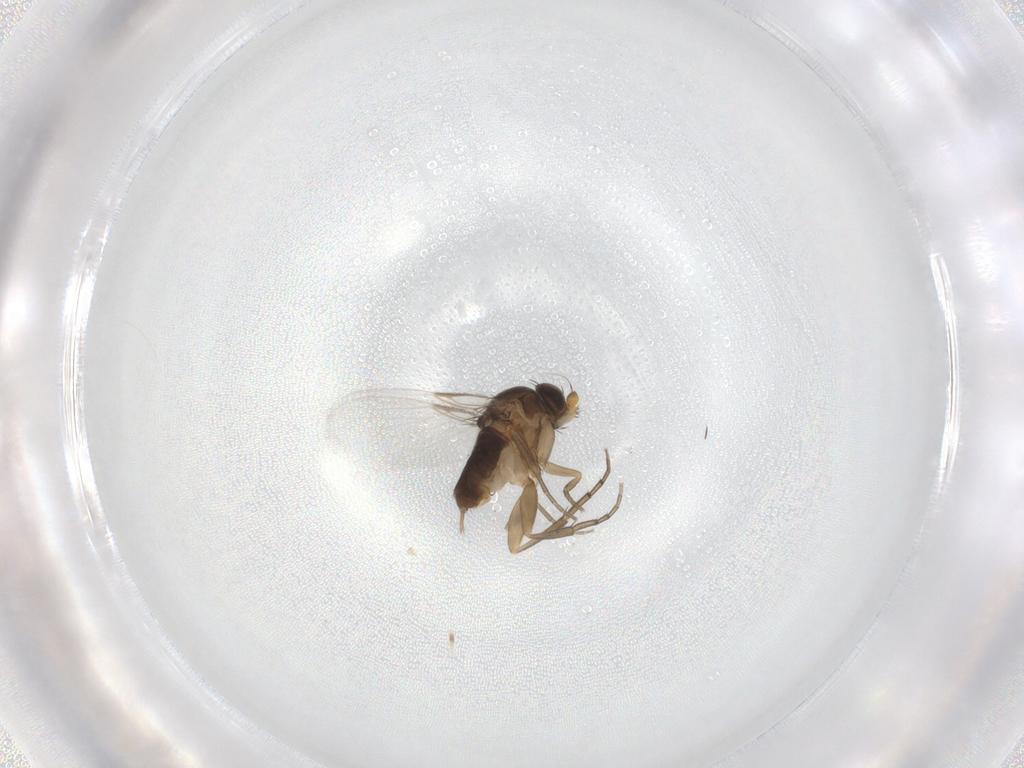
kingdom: Animalia
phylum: Arthropoda
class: Insecta
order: Diptera
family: Phoridae
